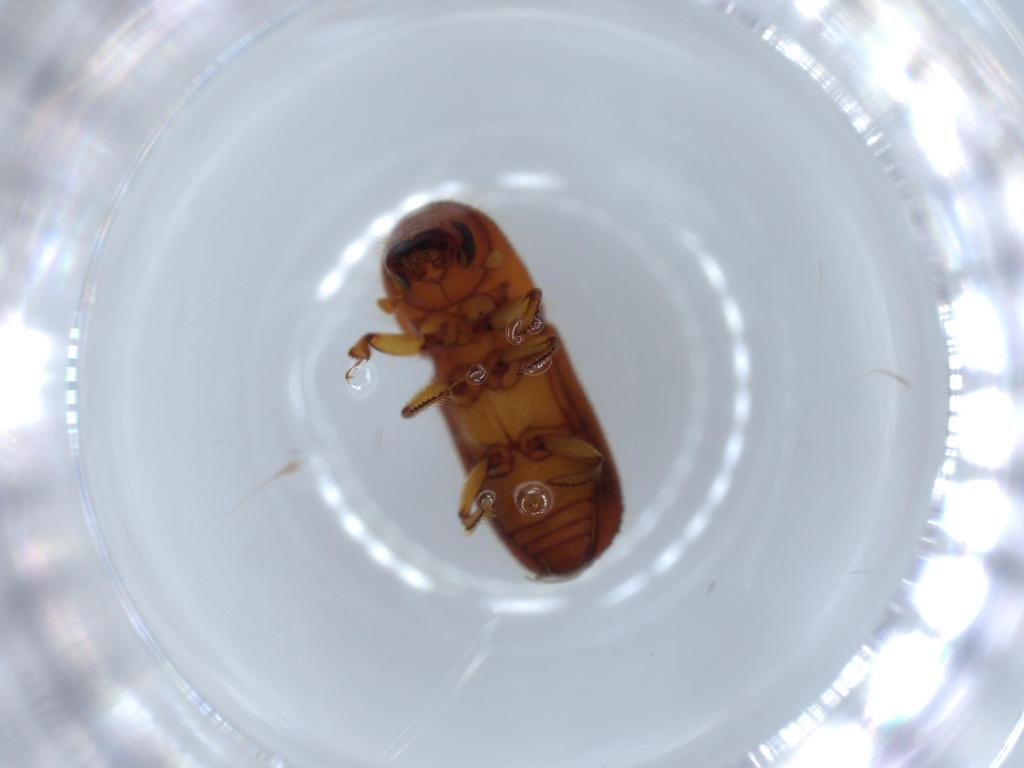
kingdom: Animalia
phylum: Arthropoda
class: Insecta
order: Coleoptera
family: Curculionidae
